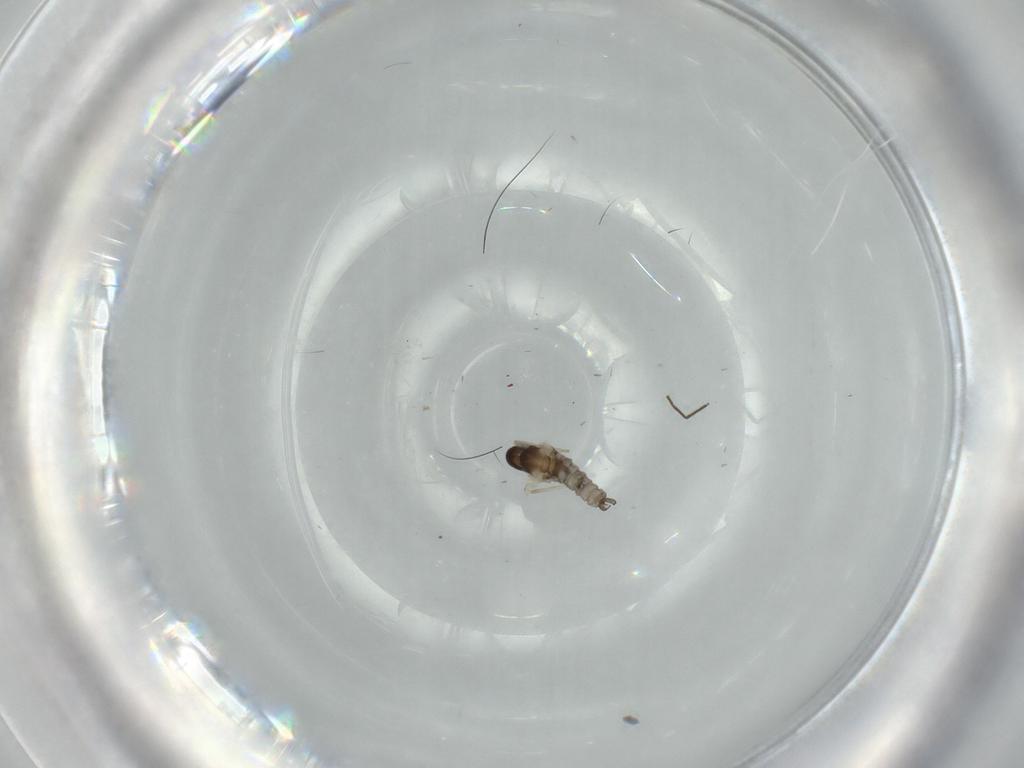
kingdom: Animalia
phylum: Arthropoda
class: Insecta
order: Diptera
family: Cecidomyiidae
